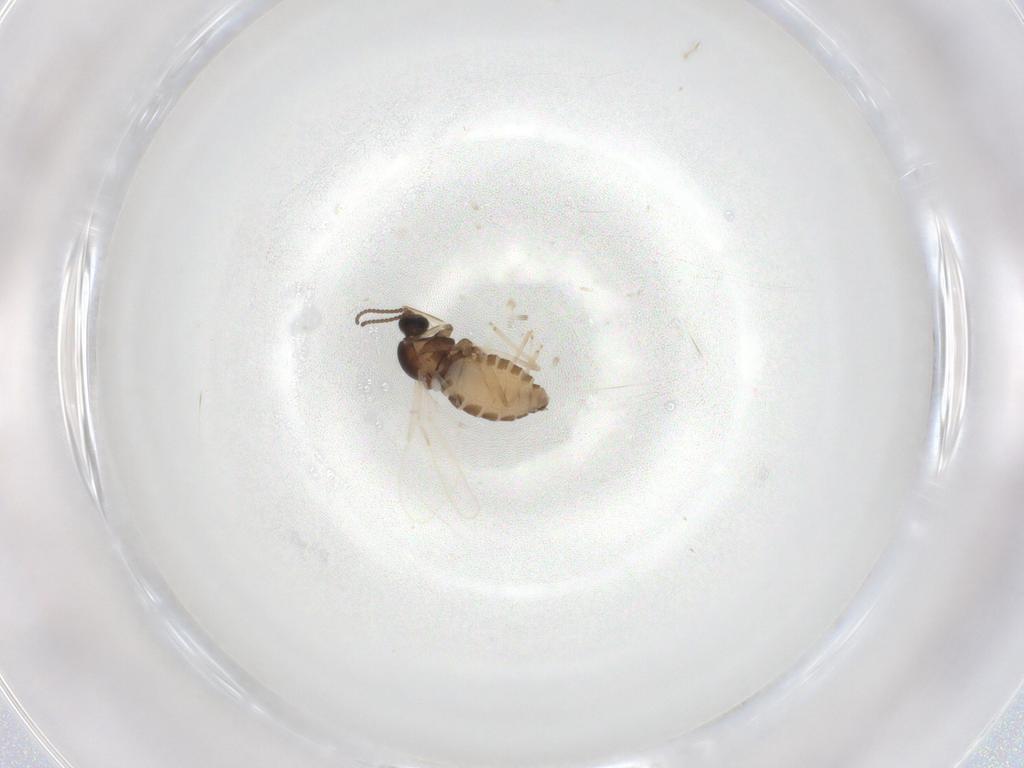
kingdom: Animalia
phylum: Arthropoda
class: Insecta
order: Diptera
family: Cecidomyiidae
